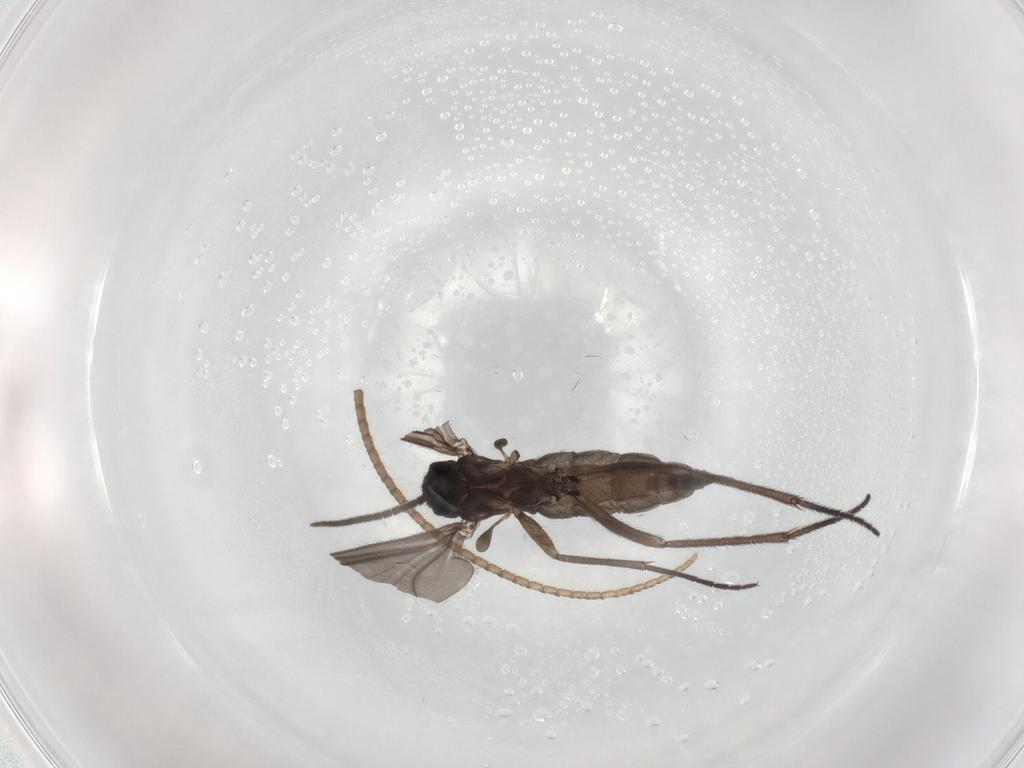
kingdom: Animalia
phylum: Arthropoda
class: Insecta
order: Diptera
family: Sciaridae
